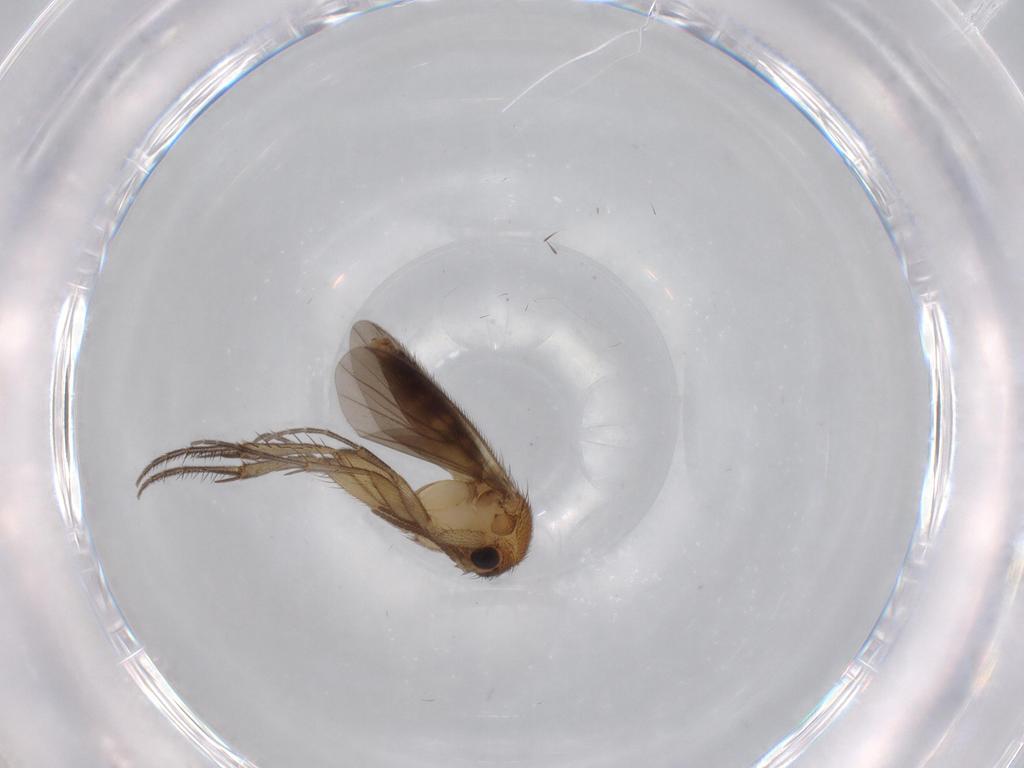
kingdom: Animalia
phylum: Arthropoda
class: Insecta
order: Diptera
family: Mycetophilidae
